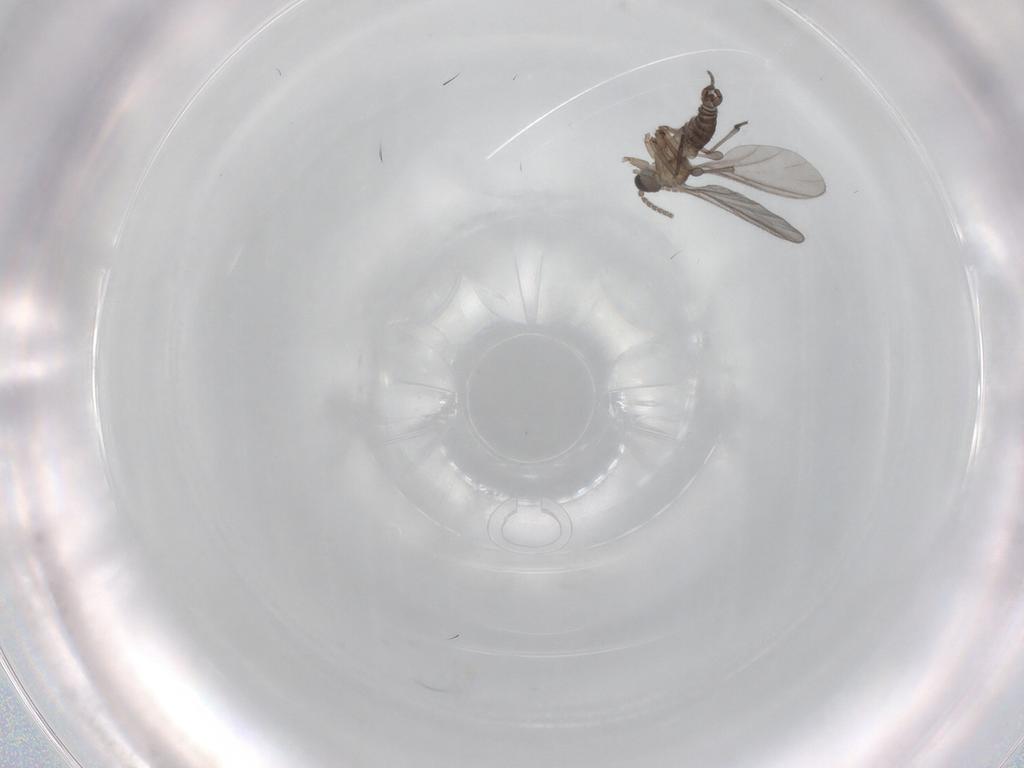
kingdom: Animalia
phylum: Arthropoda
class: Insecta
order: Diptera
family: Sciaridae
